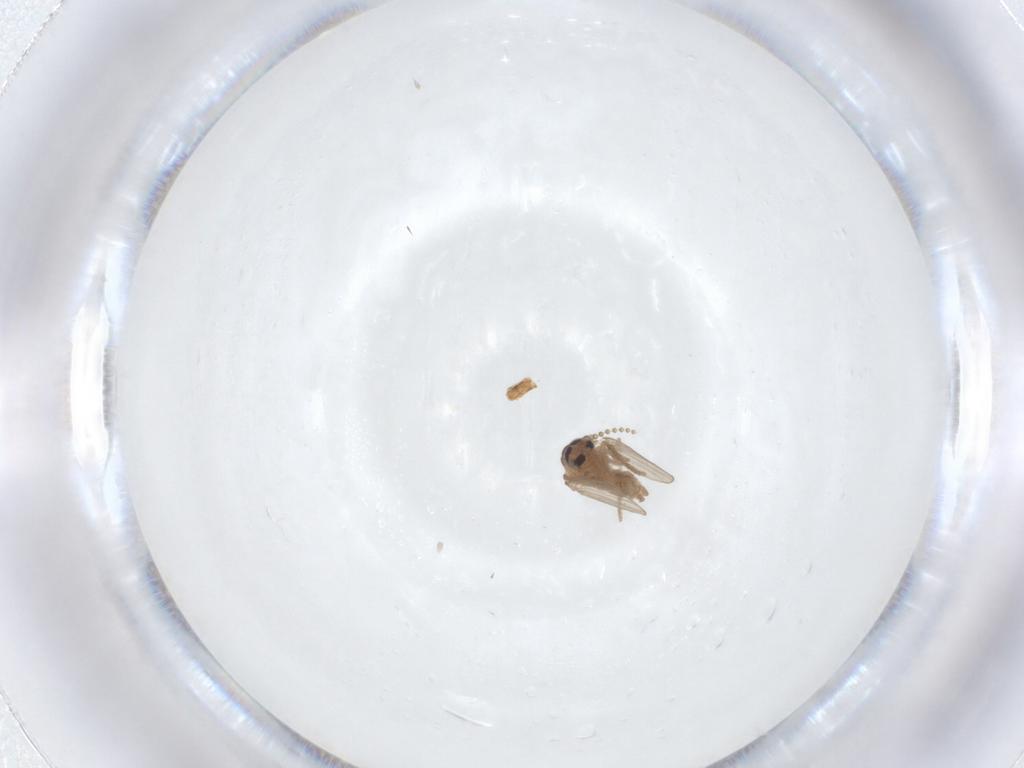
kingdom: Animalia
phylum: Arthropoda
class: Insecta
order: Diptera
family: Psychodidae
